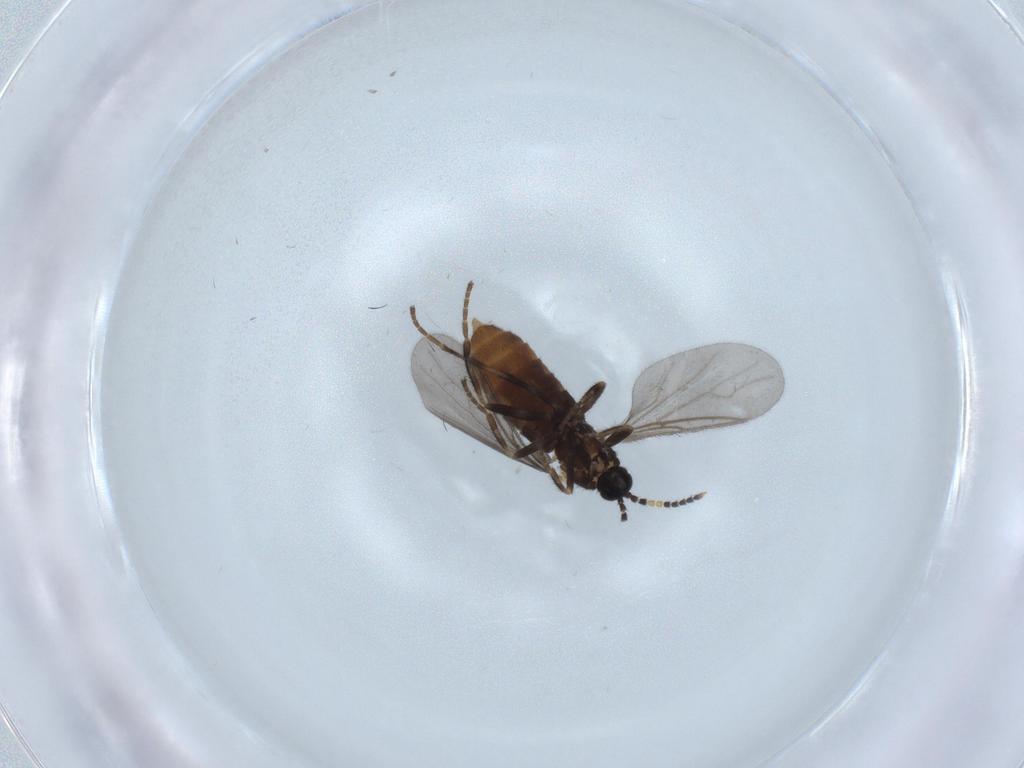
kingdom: Animalia
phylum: Arthropoda
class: Insecta
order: Diptera
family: Scatopsidae
